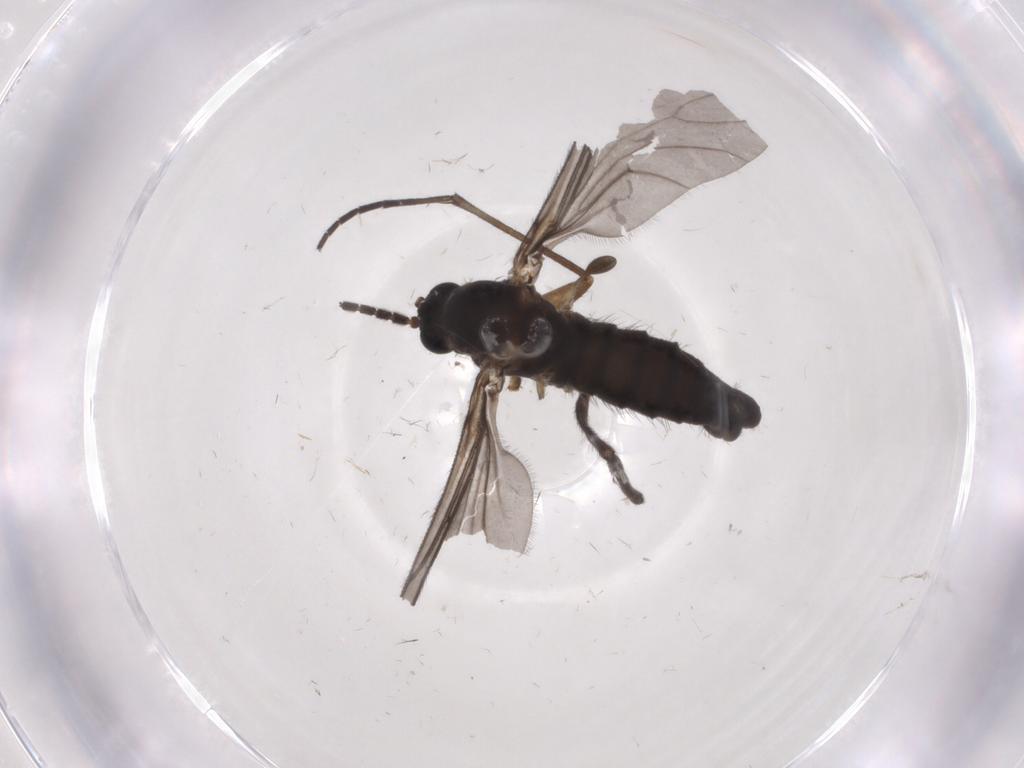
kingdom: Animalia
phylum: Arthropoda
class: Insecta
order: Diptera
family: Sciaridae
